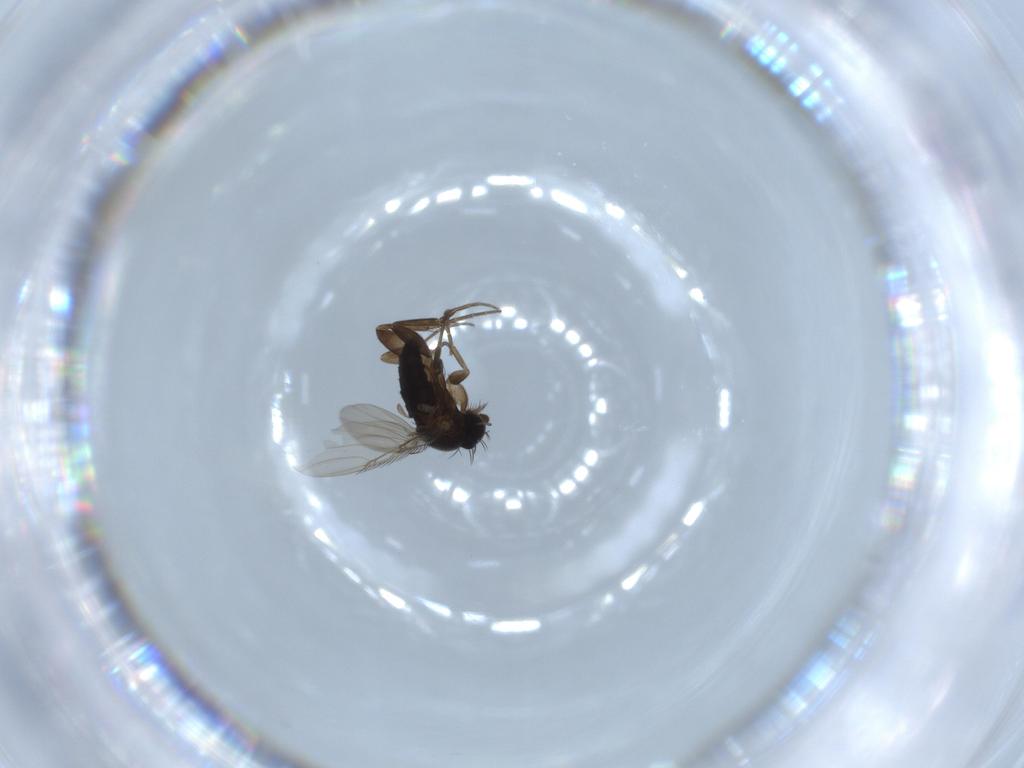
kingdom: Animalia
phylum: Arthropoda
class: Insecta
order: Diptera
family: Phoridae
